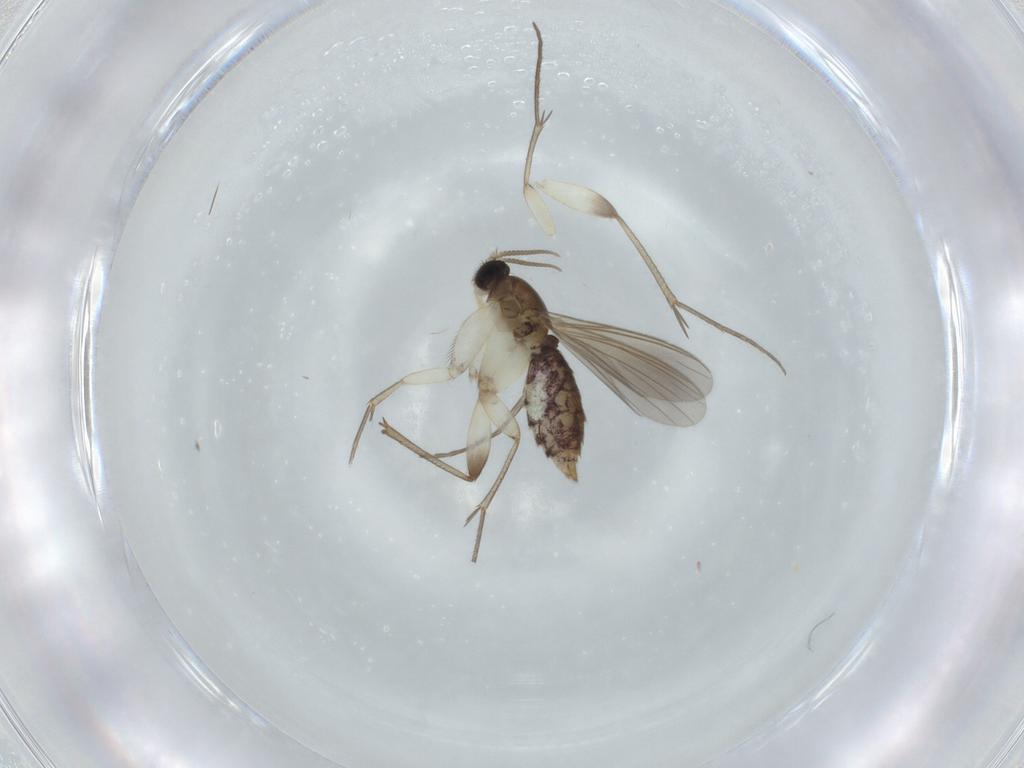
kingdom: Animalia
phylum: Arthropoda
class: Insecta
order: Diptera
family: Mycetophilidae
